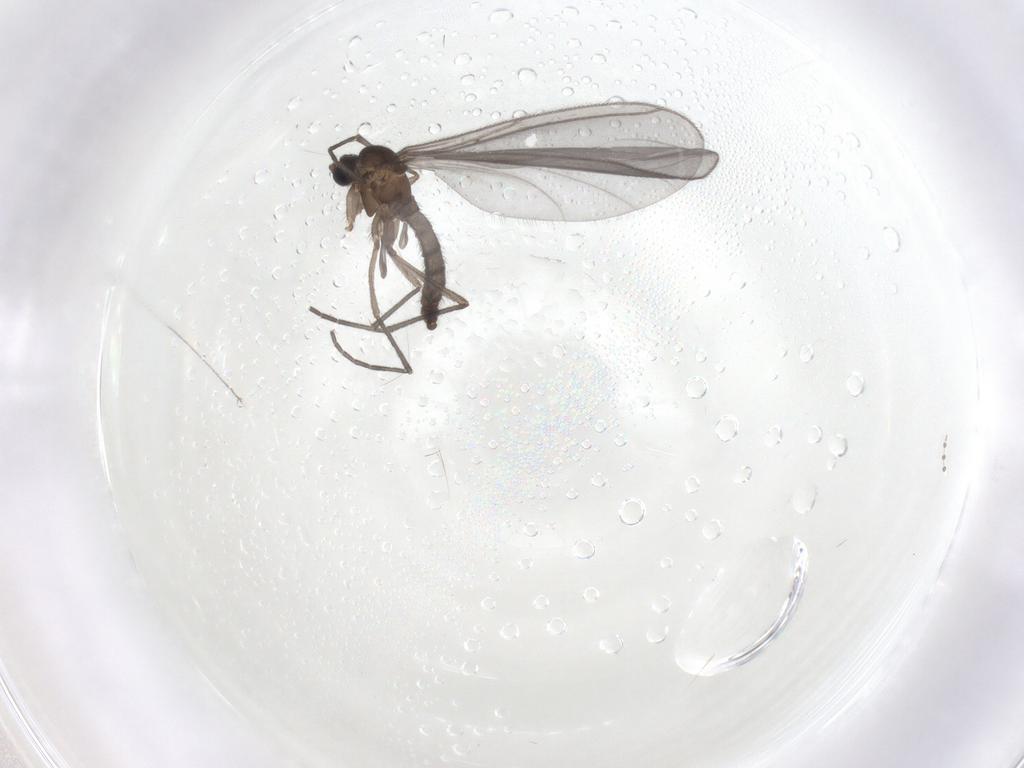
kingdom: Animalia
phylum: Arthropoda
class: Insecta
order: Diptera
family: Sciaridae
